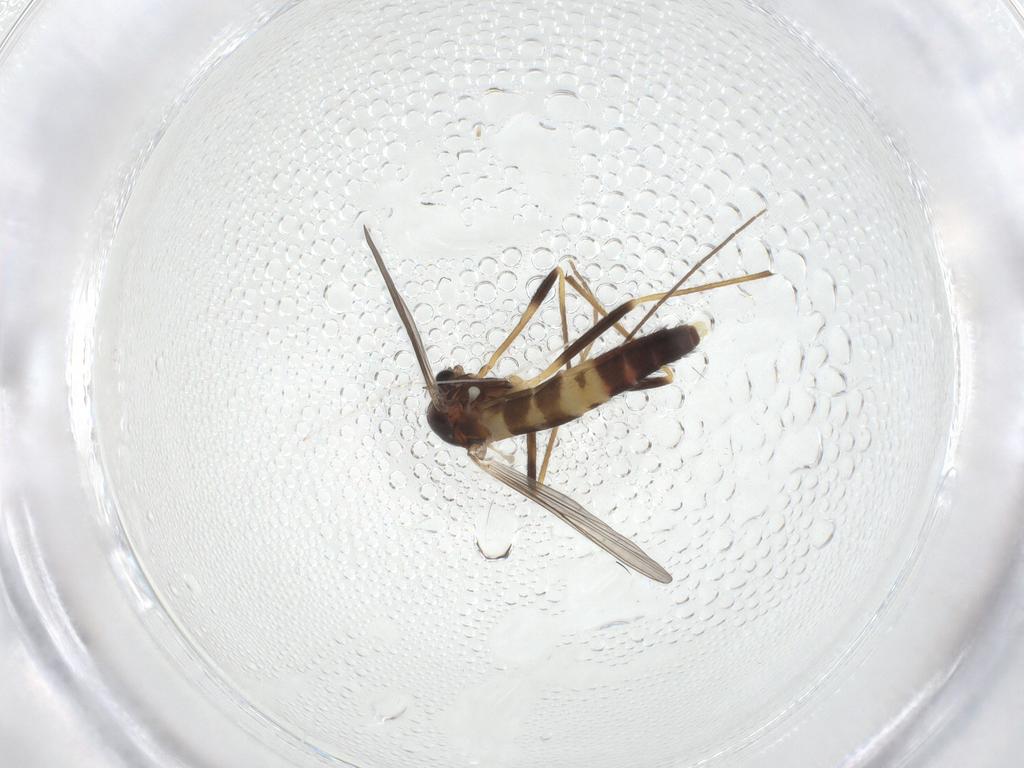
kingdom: Animalia
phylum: Arthropoda
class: Insecta
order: Diptera
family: Chironomidae
